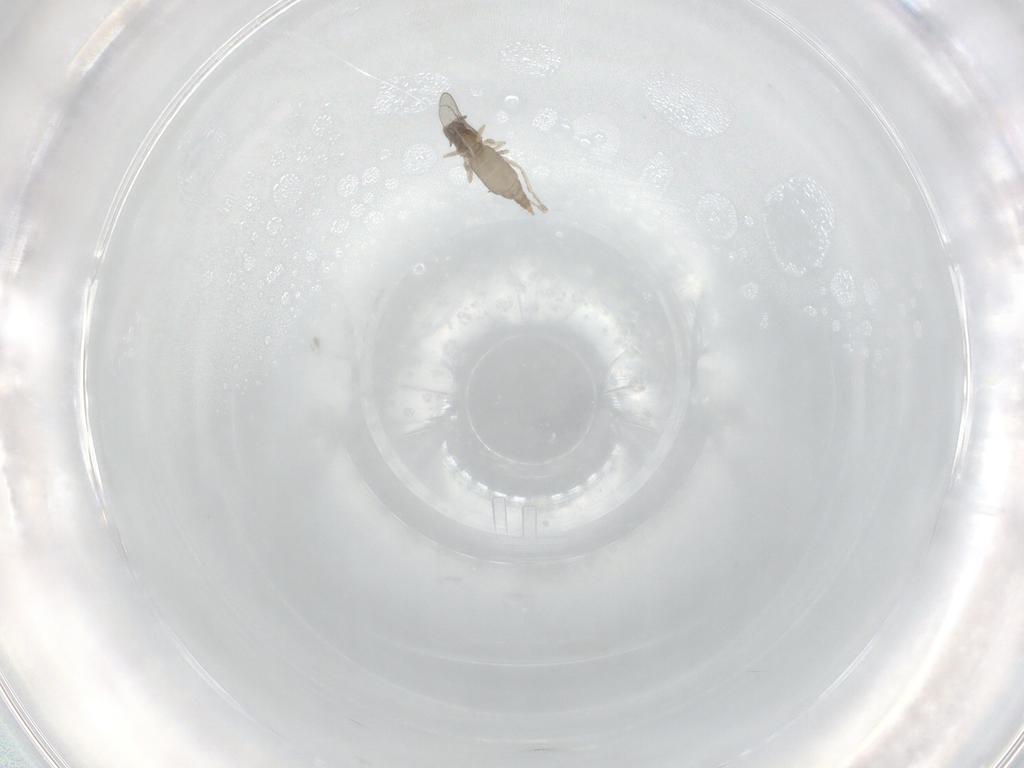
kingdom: Animalia
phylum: Arthropoda
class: Insecta
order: Diptera
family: Cecidomyiidae
